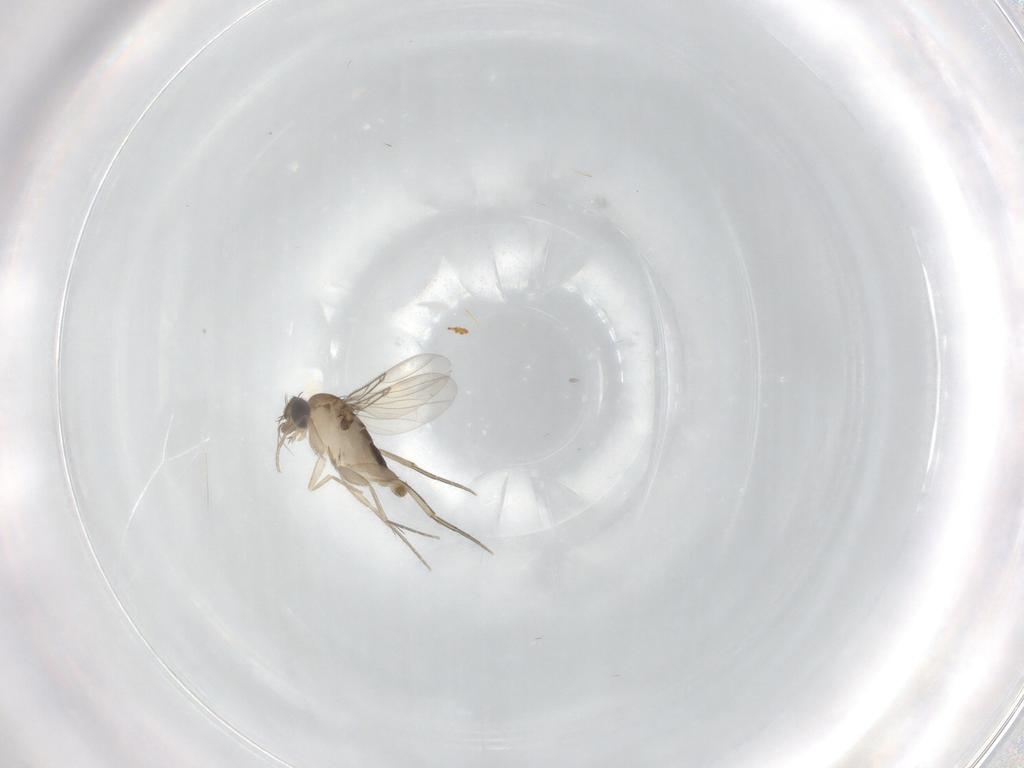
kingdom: Animalia
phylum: Arthropoda
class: Insecta
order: Diptera
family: Phoridae
